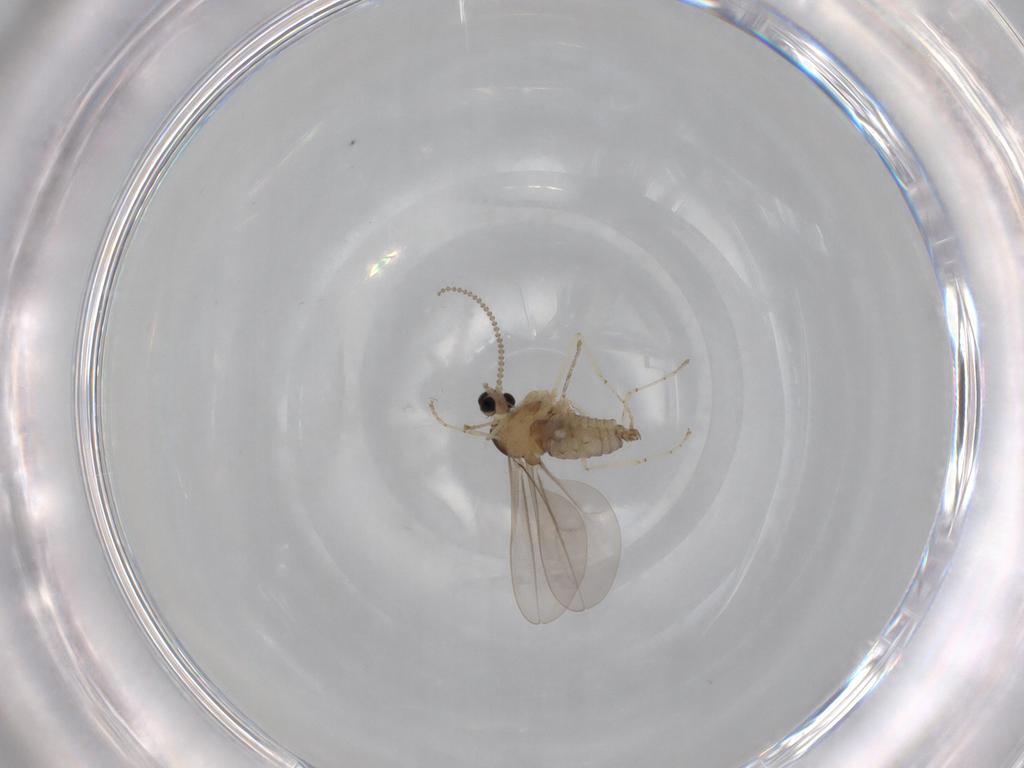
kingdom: Animalia
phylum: Arthropoda
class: Insecta
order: Diptera
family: Cecidomyiidae
